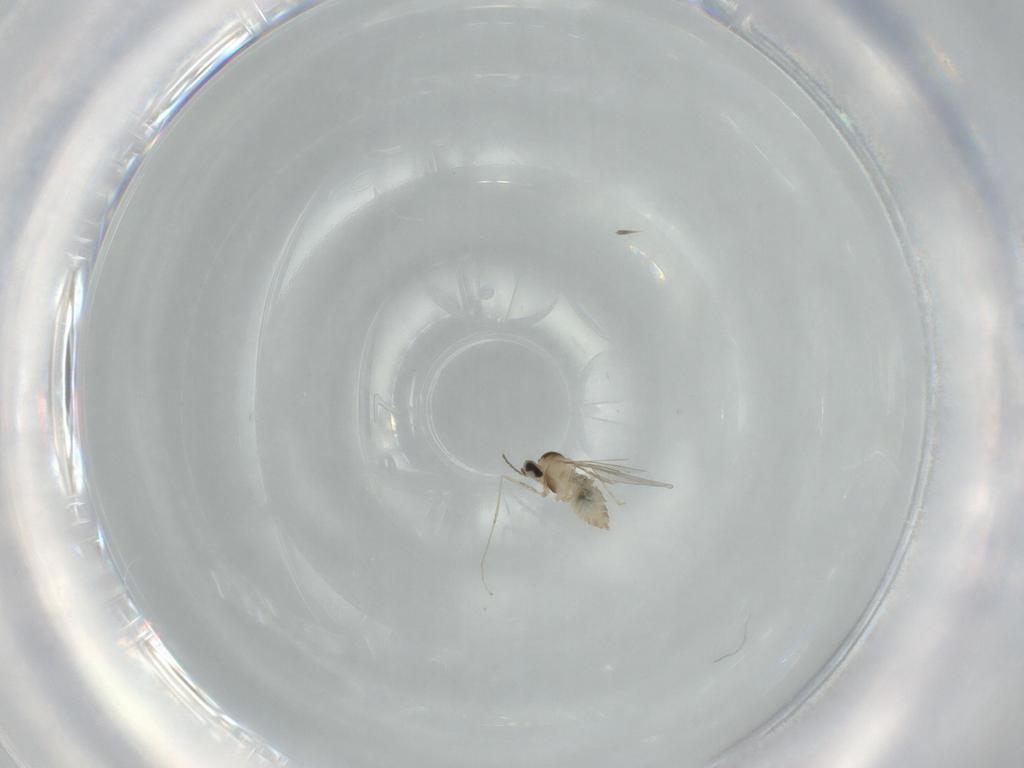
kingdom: Animalia
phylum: Arthropoda
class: Insecta
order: Diptera
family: Cecidomyiidae
